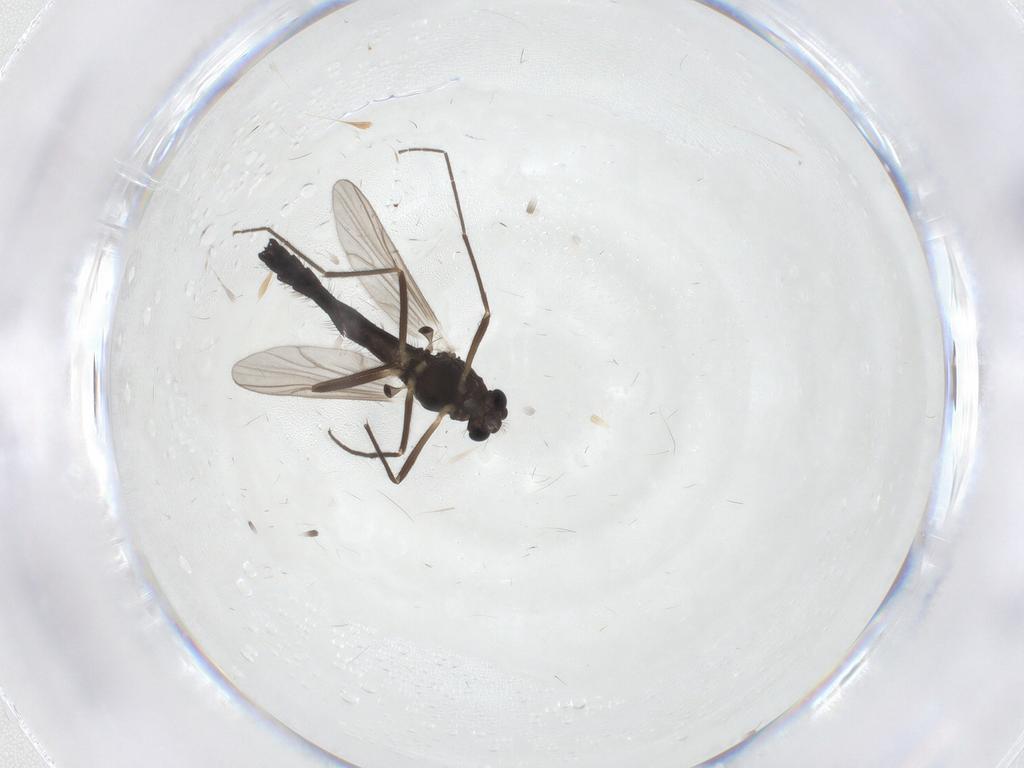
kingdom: Animalia
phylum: Arthropoda
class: Insecta
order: Diptera
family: Chironomidae
